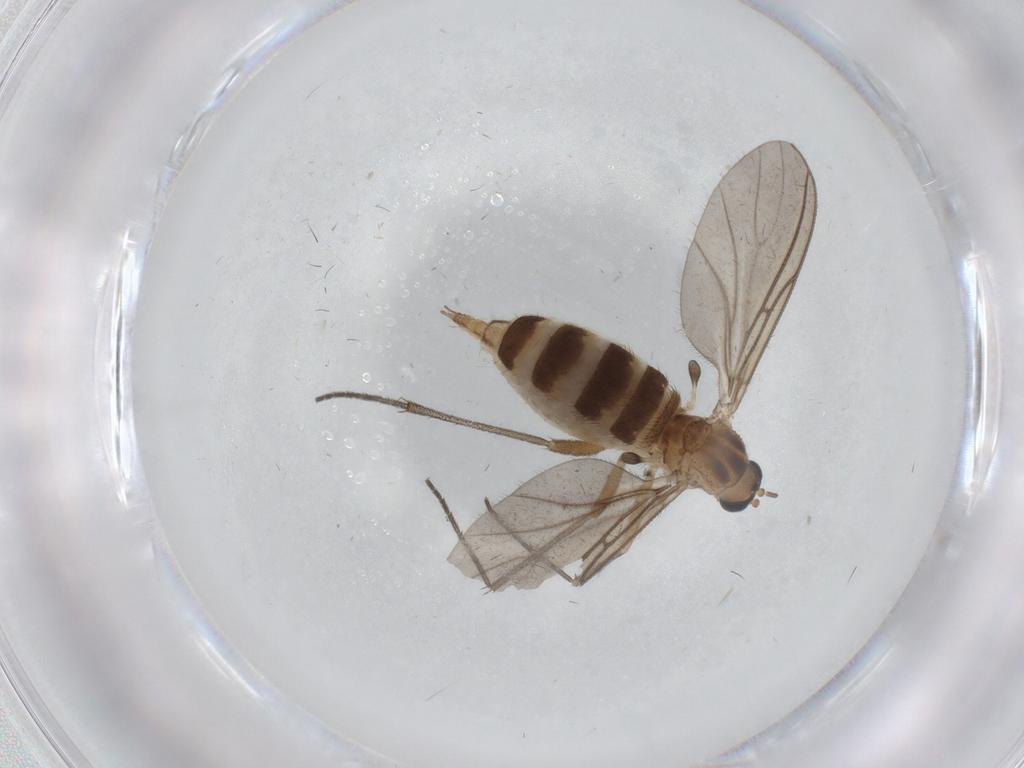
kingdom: Animalia
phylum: Arthropoda
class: Insecta
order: Diptera
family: Sciaridae
